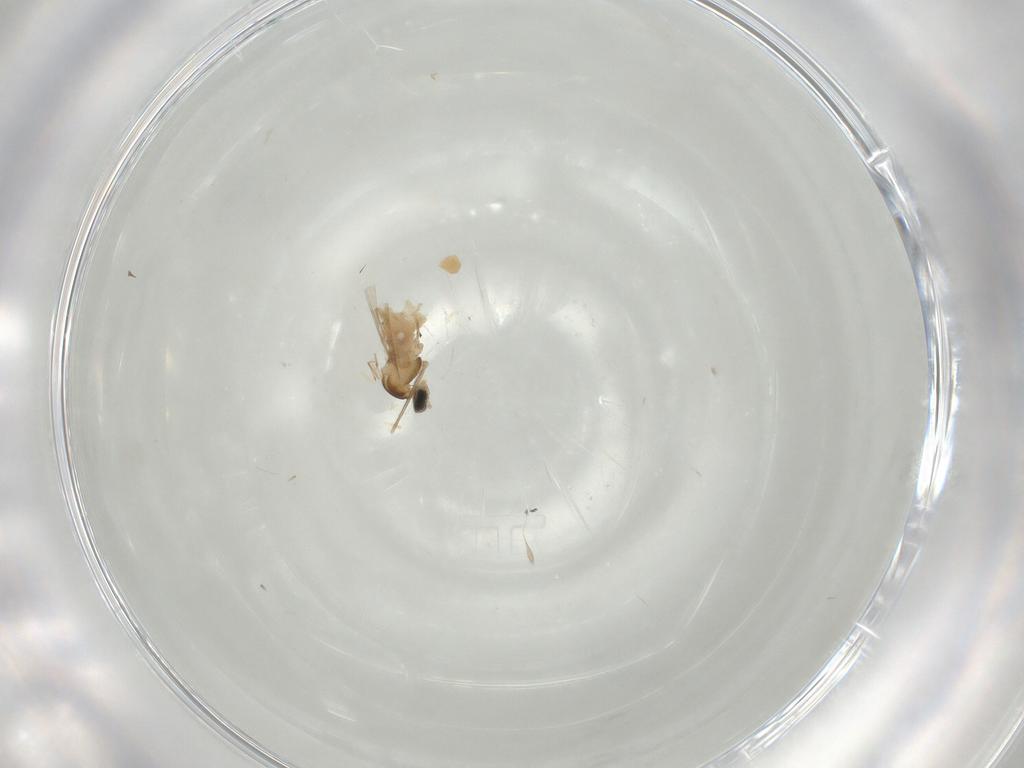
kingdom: Animalia
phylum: Arthropoda
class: Insecta
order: Diptera
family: Cecidomyiidae
